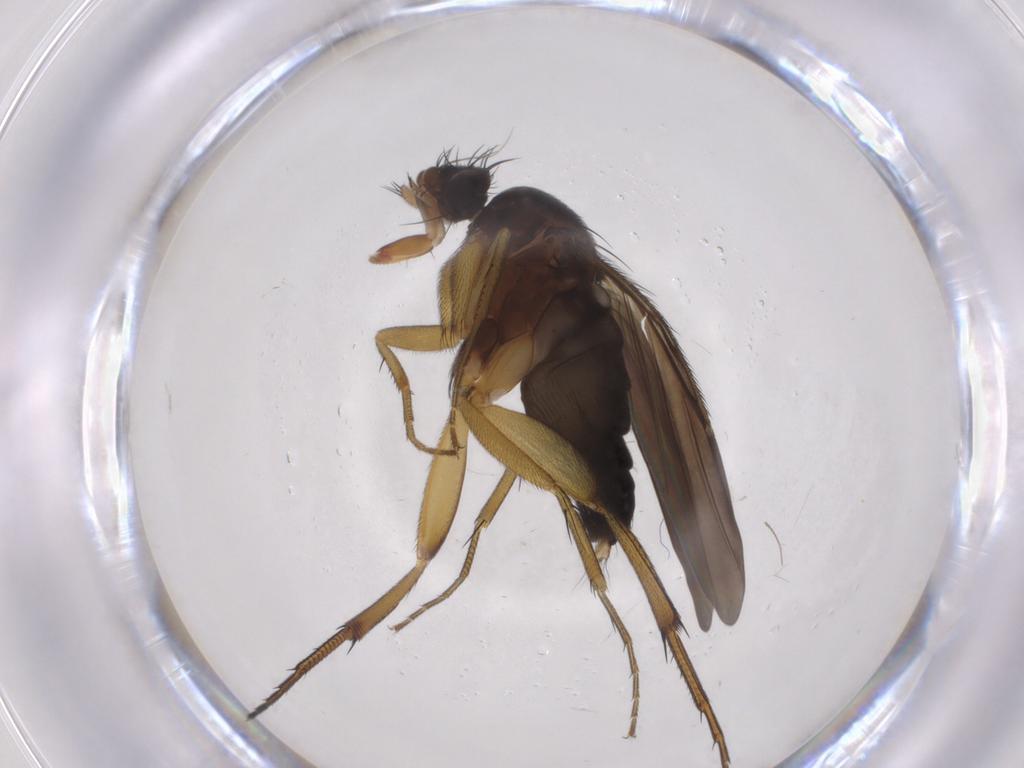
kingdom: Animalia
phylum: Arthropoda
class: Insecta
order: Diptera
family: Phoridae
